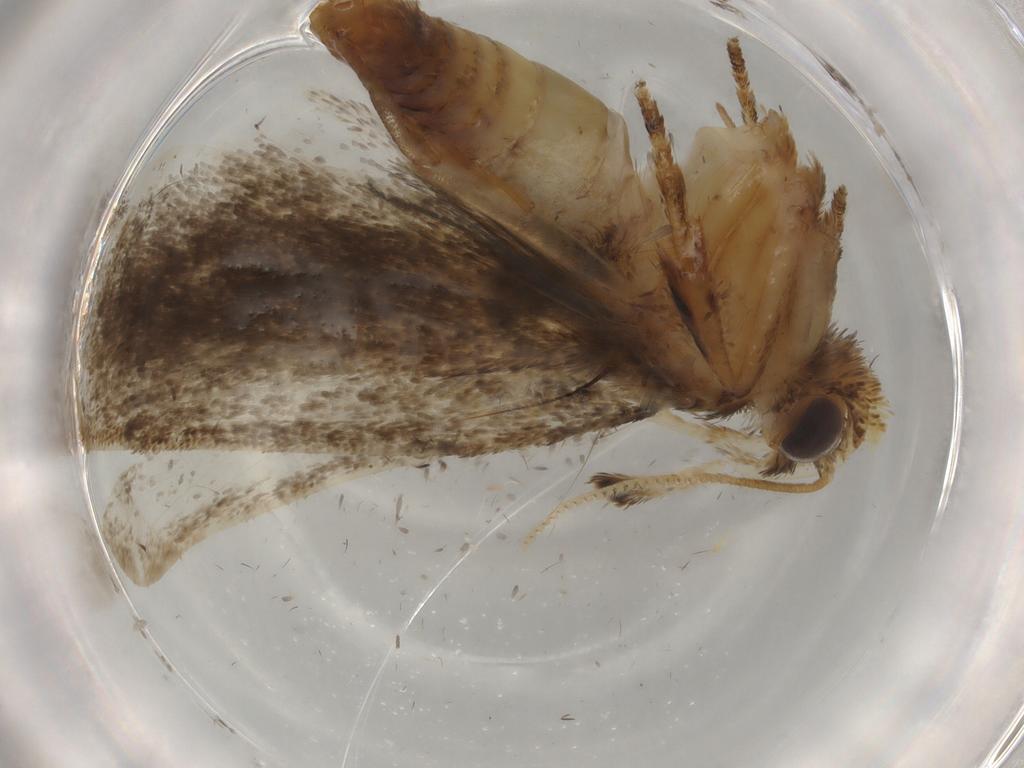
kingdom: Animalia
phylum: Arthropoda
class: Insecta
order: Lepidoptera
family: Tineidae
